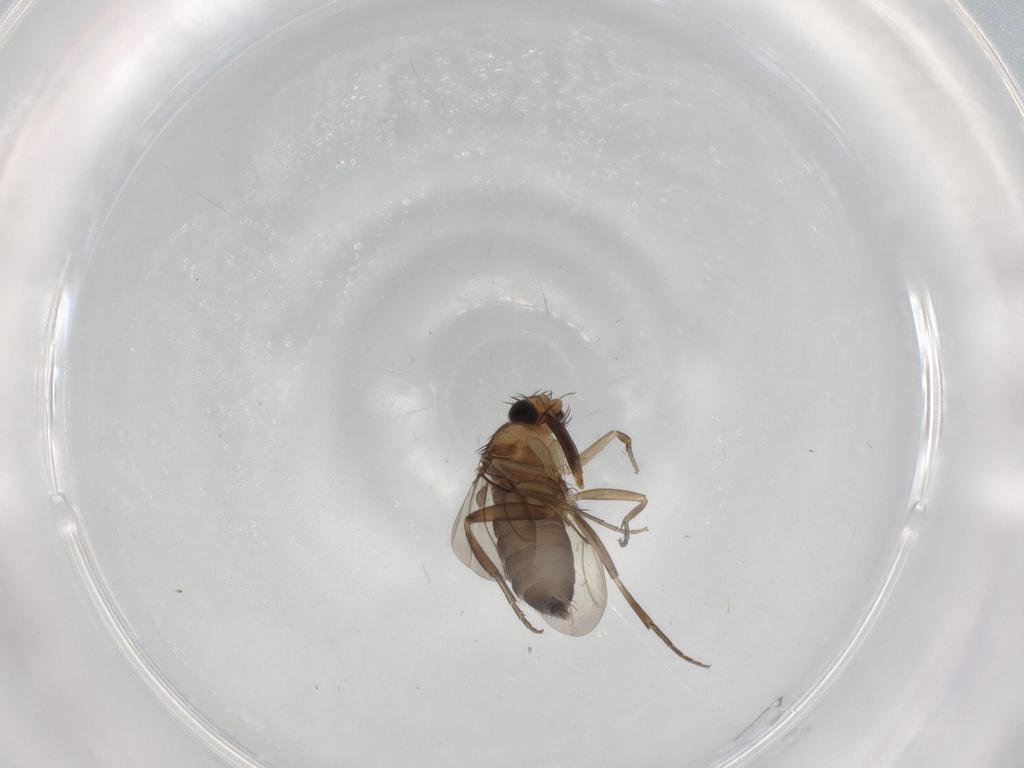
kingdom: Animalia
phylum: Arthropoda
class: Insecta
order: Diptera
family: Phoridae
